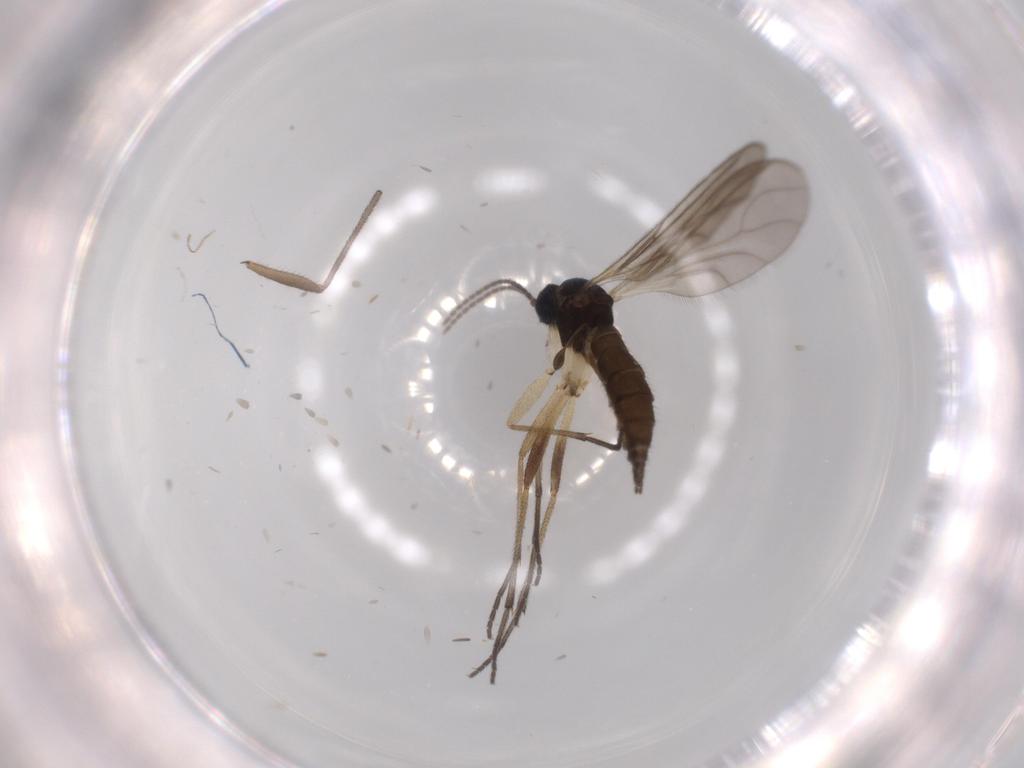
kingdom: Animalia
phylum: Arthropoda
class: Insecta
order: Diptera
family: Sciaridae
